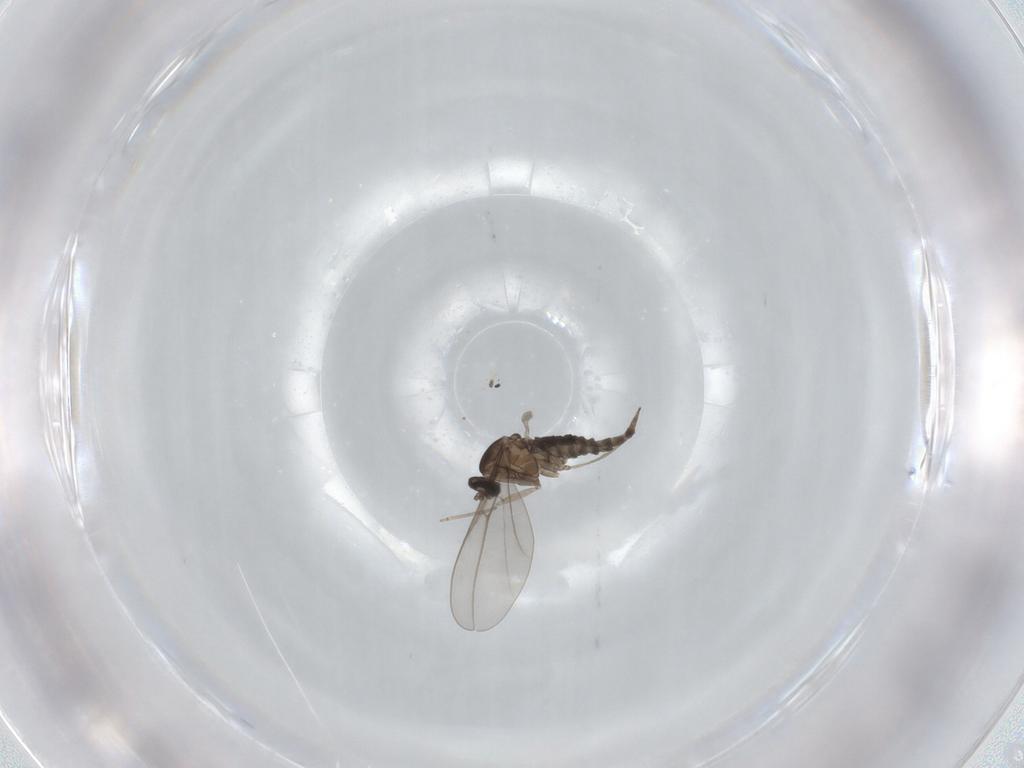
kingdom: Animalia
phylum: Arthropoda
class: Insecta
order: Diptera
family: Cecidomyiidae
